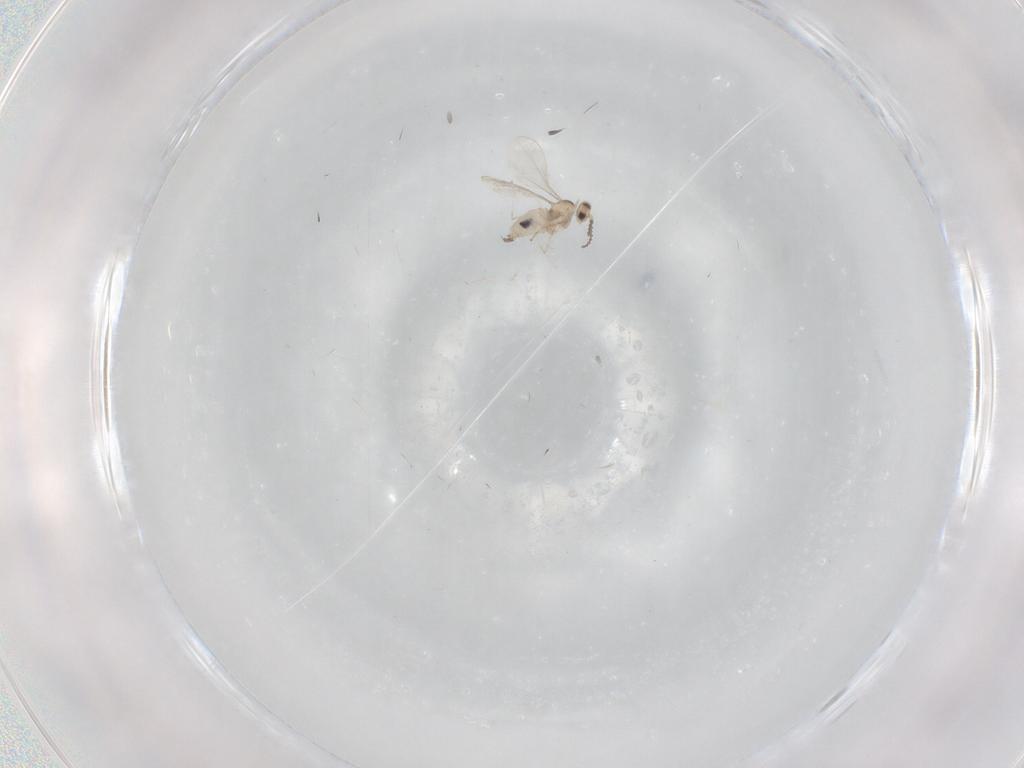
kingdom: Animalia
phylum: Arthropoda
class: Insecta
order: Diptera
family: Cecidomyiidae
